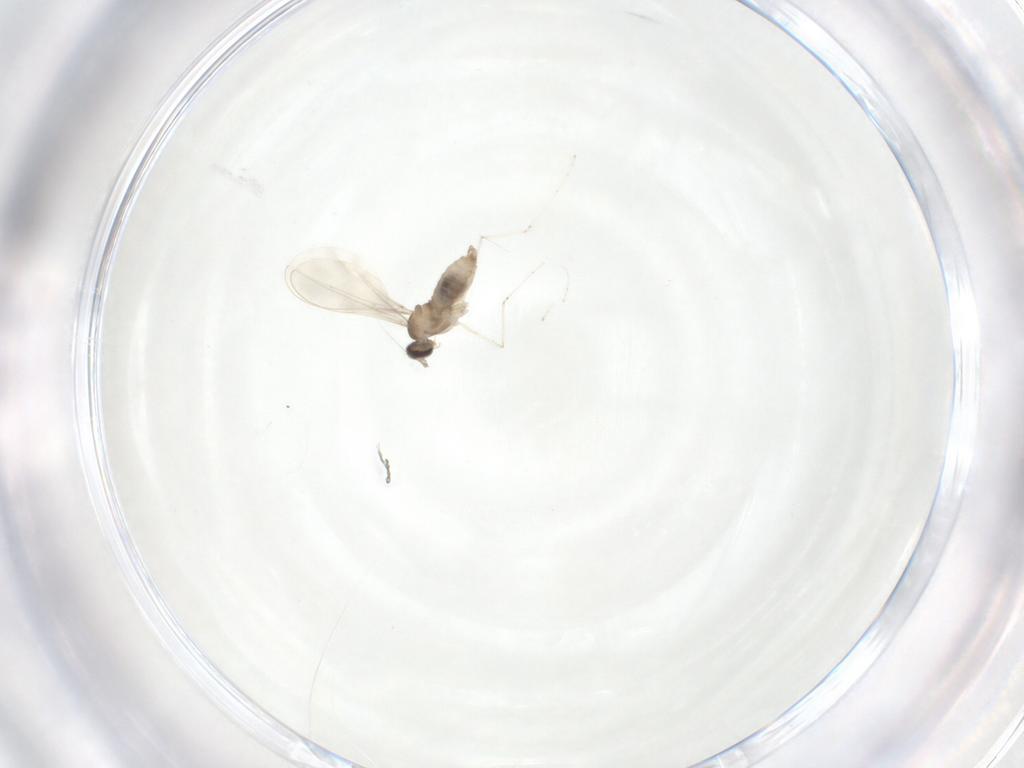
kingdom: Animalia
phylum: Arthropoda
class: Insecta
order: Diptera
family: Cecidomyiidae
